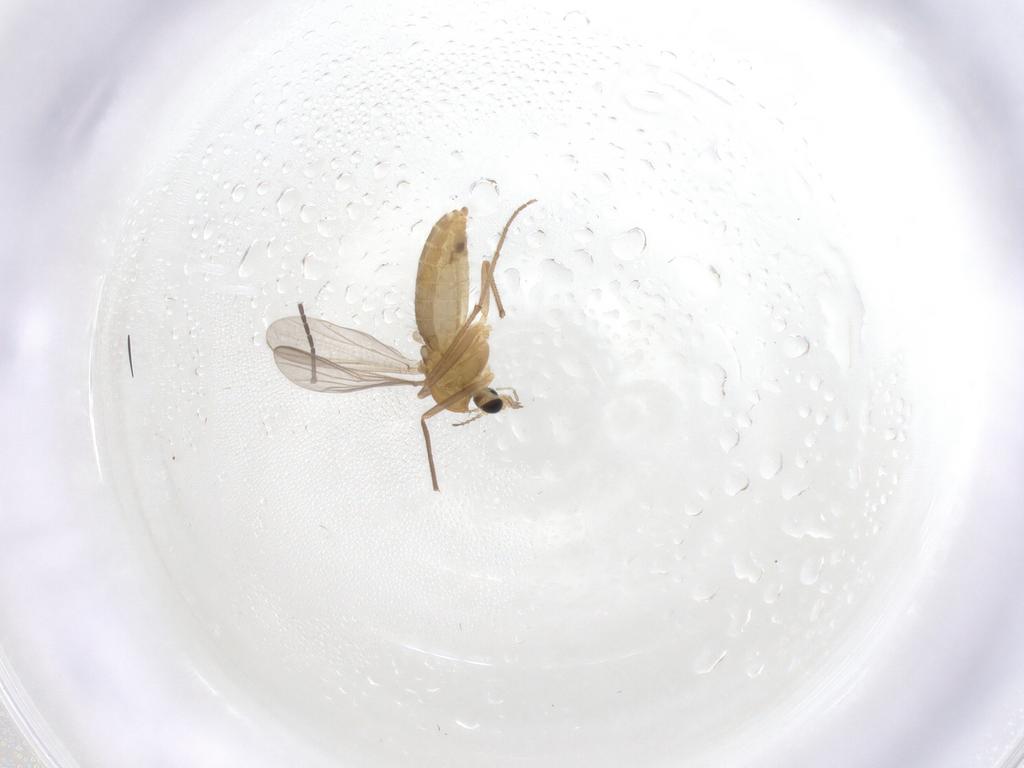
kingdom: Animalia
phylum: Arthropoda
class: Insecta
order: Diptera
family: Chironomidae
